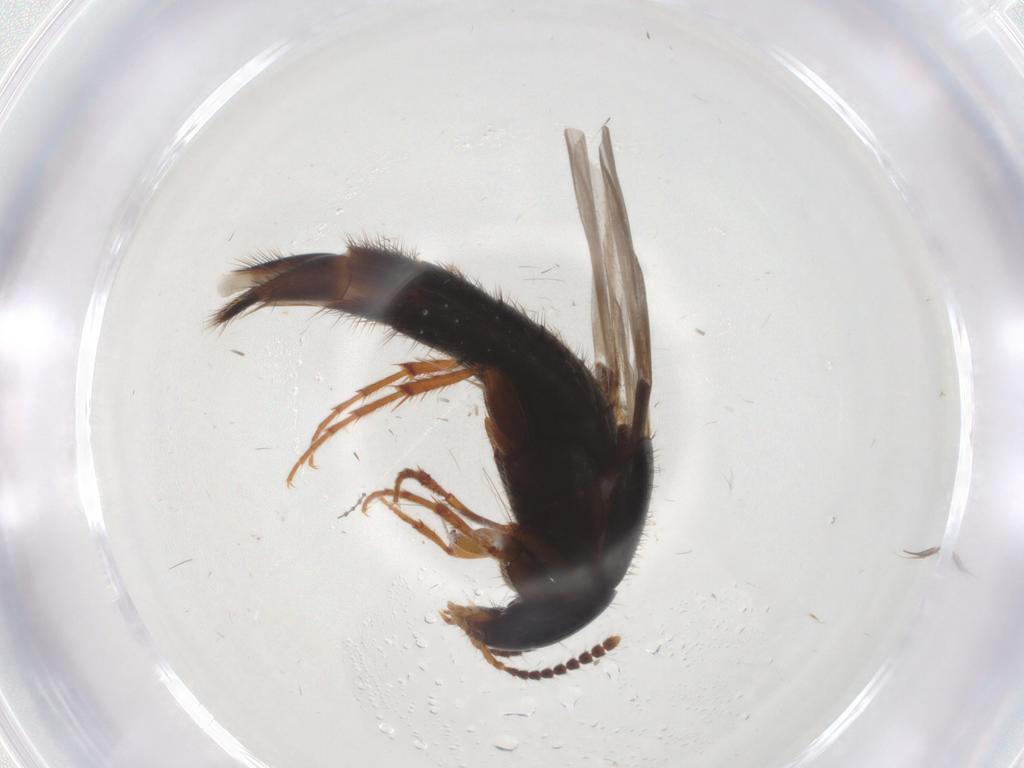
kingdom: Animalia
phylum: Arthropoda
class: Insecta
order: Coleoptera
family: Staphylinidae
